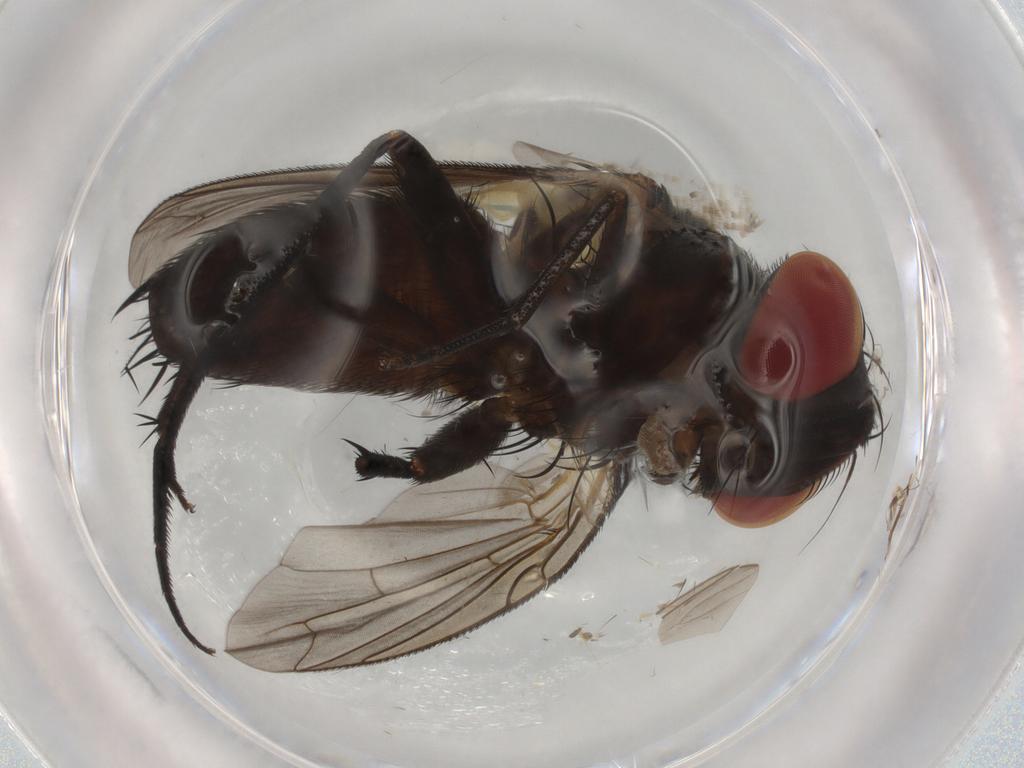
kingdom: Animalia
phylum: Arthropoda
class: Insecta
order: Diptera
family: Sarcophagidae
